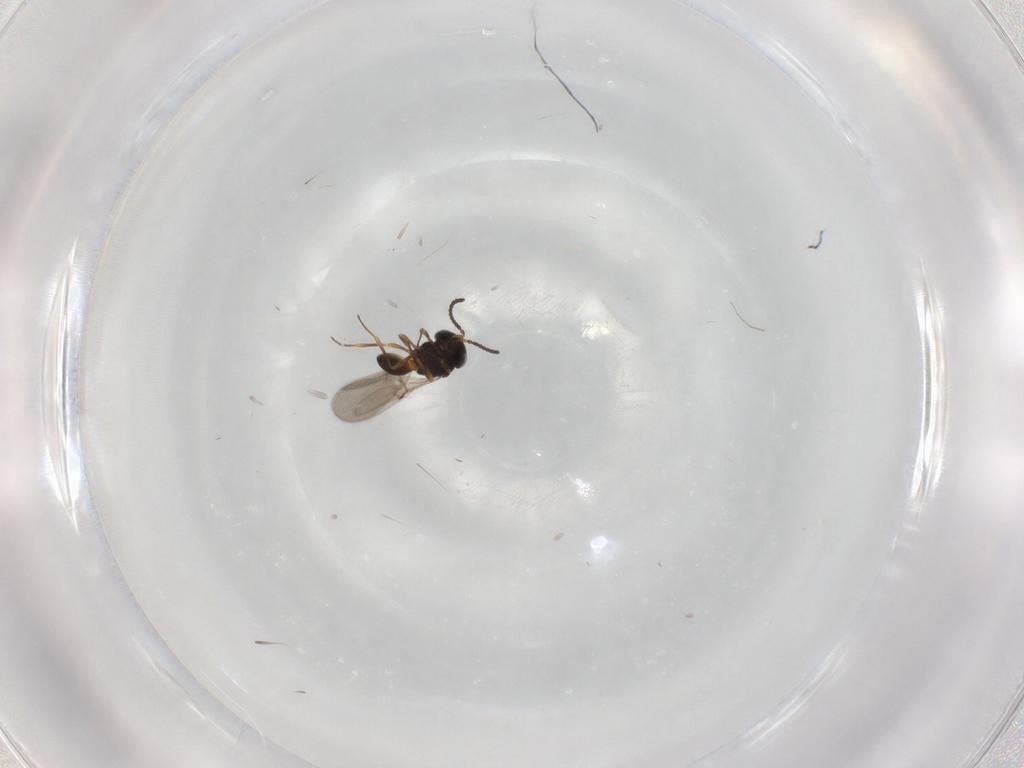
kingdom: Animalia
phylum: Arthropoda
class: Insecta
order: Hymenoptera
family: Scelionidae
